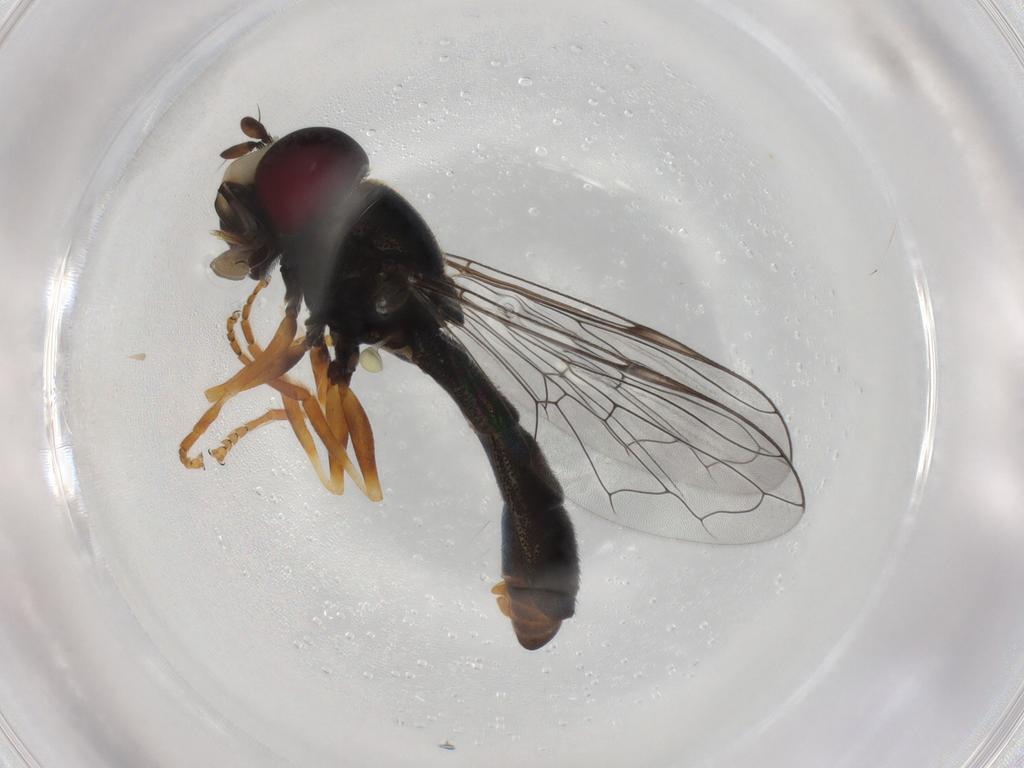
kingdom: Animalia
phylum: Arthropoda
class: Insecta
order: Diptera
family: Syrphidae
